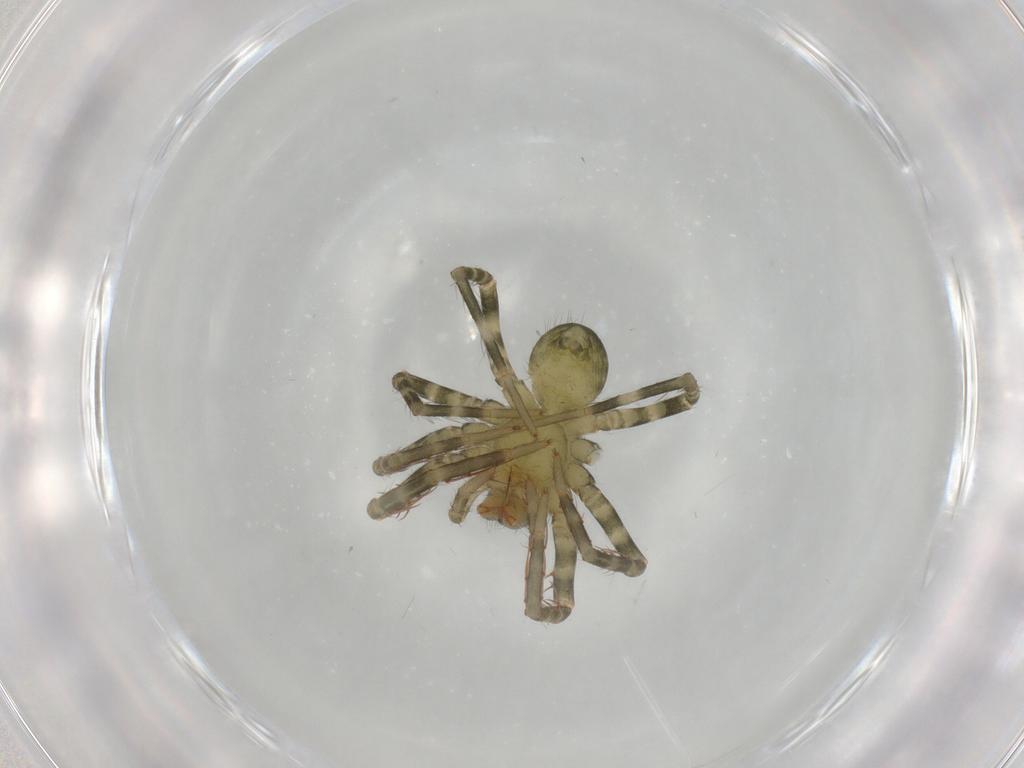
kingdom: Animalia
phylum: Arthropoda
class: Arachnida
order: Araneae
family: Ctenidae
